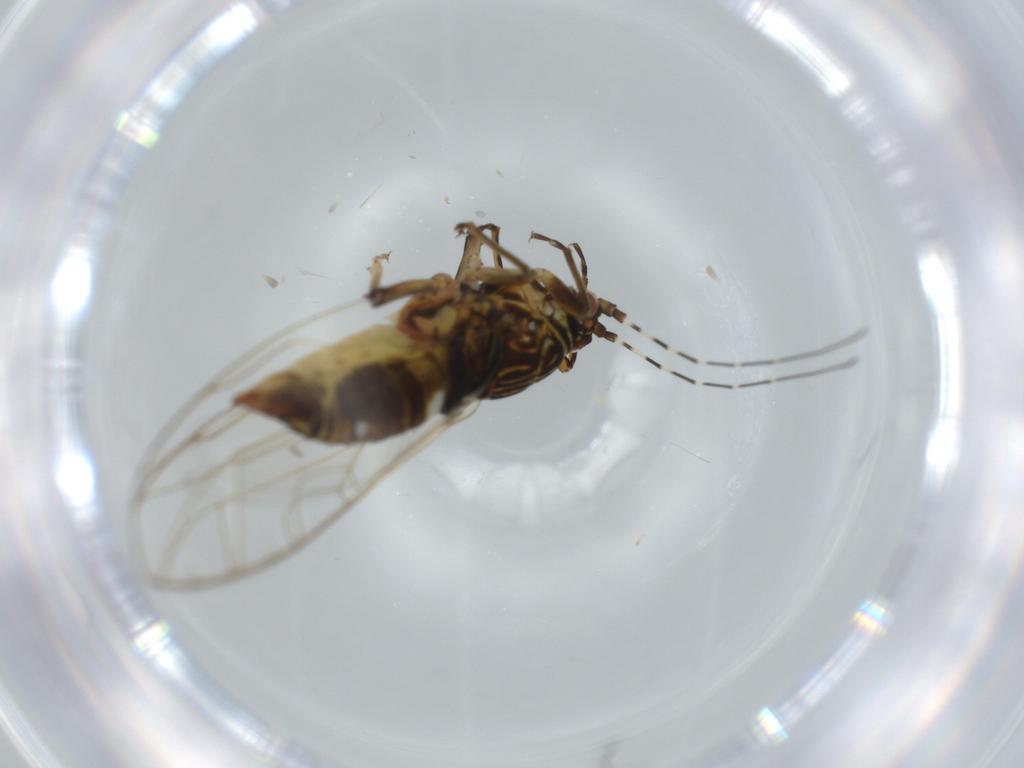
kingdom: Animalia
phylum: Arthropoda
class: Insecta
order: Hemiptera
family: Carsidaridae
